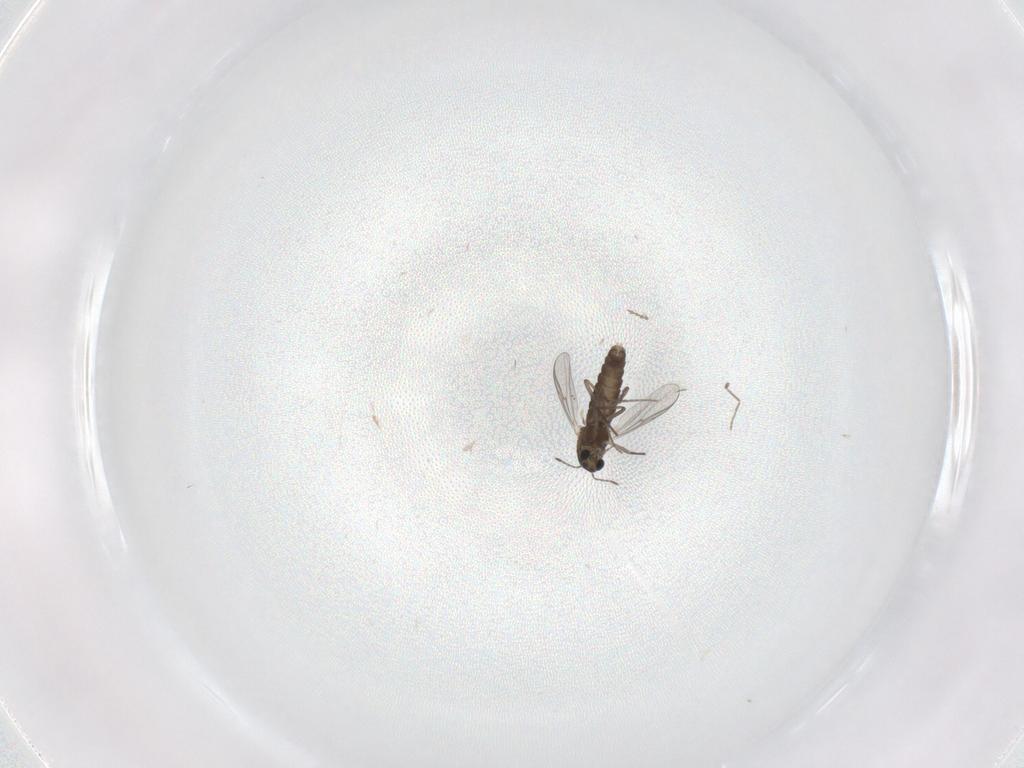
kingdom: Animalia
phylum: Arthropoda
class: Insecta
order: Diptera
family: Chironomidae
